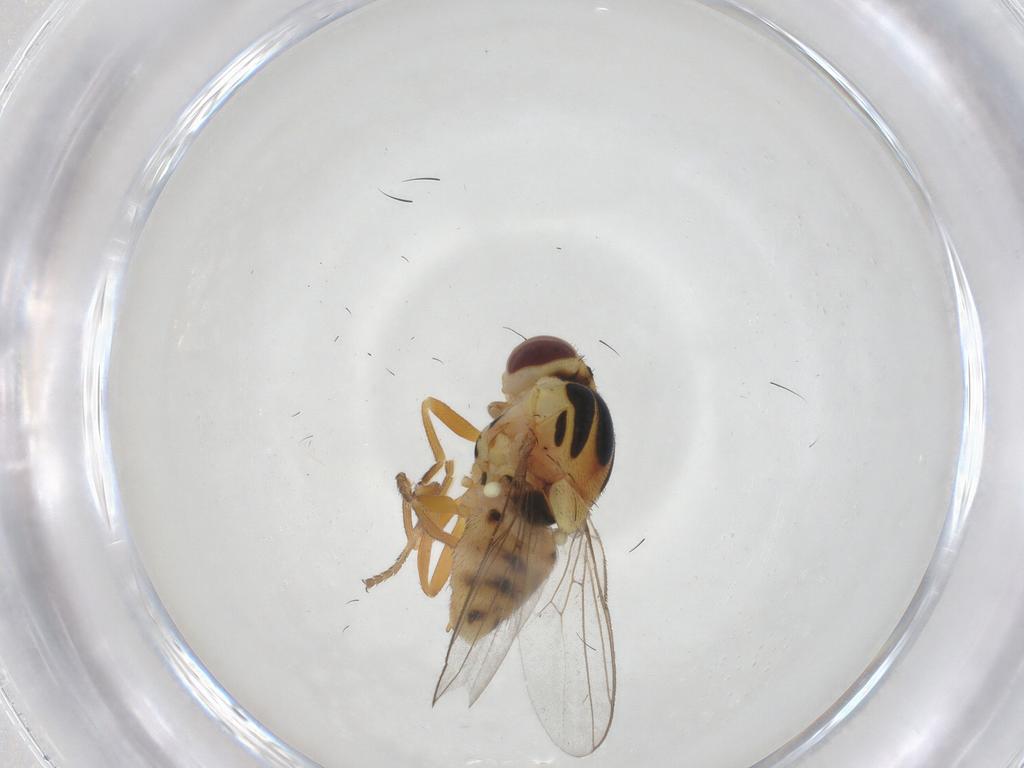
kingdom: Animalia
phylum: Arthropoda
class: Insecta
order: Diptera
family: Chloropidae
